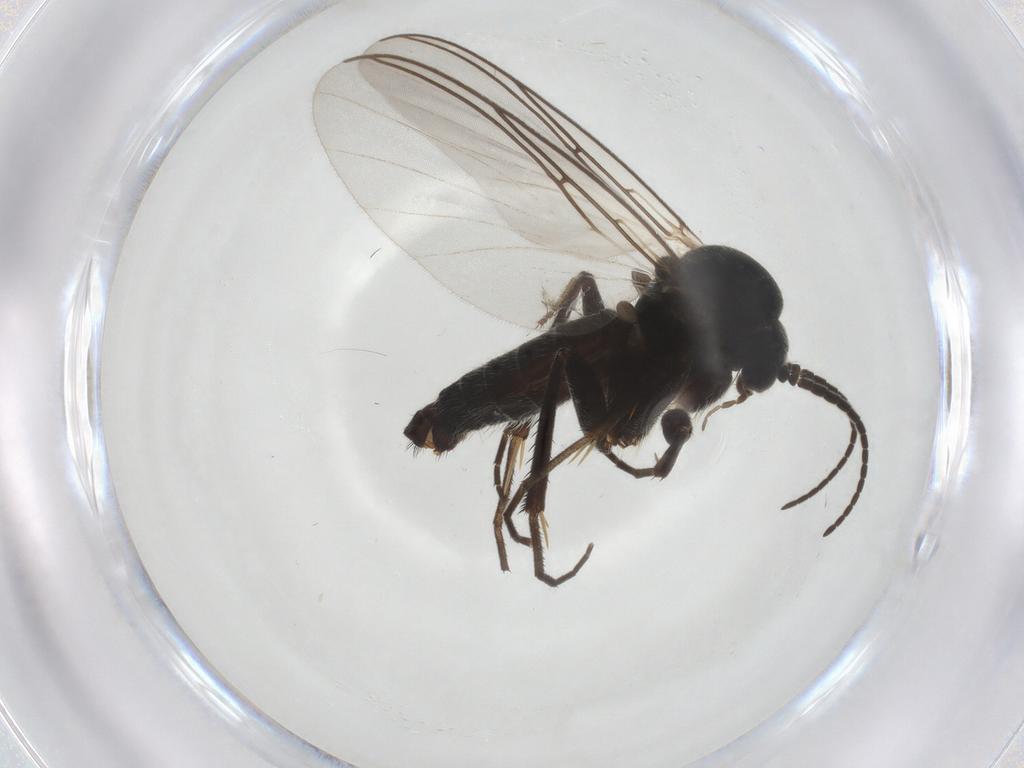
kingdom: Animalia
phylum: Arthropoda
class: Insecta
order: Diptera
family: Mycetophilidae
